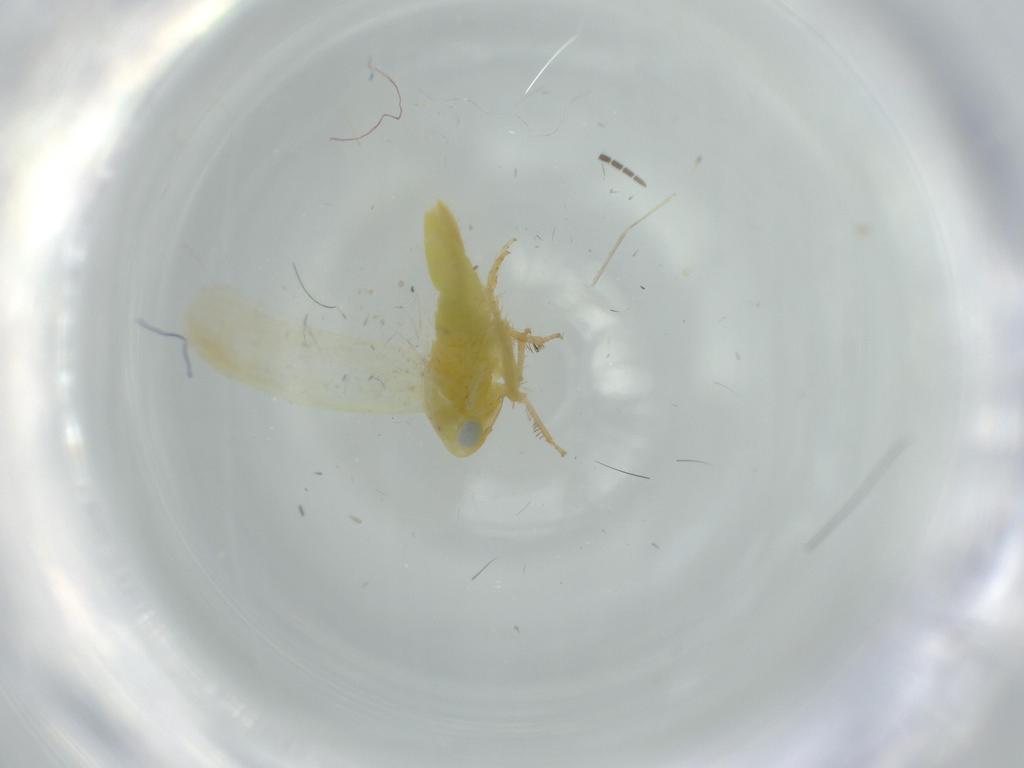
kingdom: Animalia
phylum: Arthropoda
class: Insecta
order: Hemiptera
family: Cicadellidae
